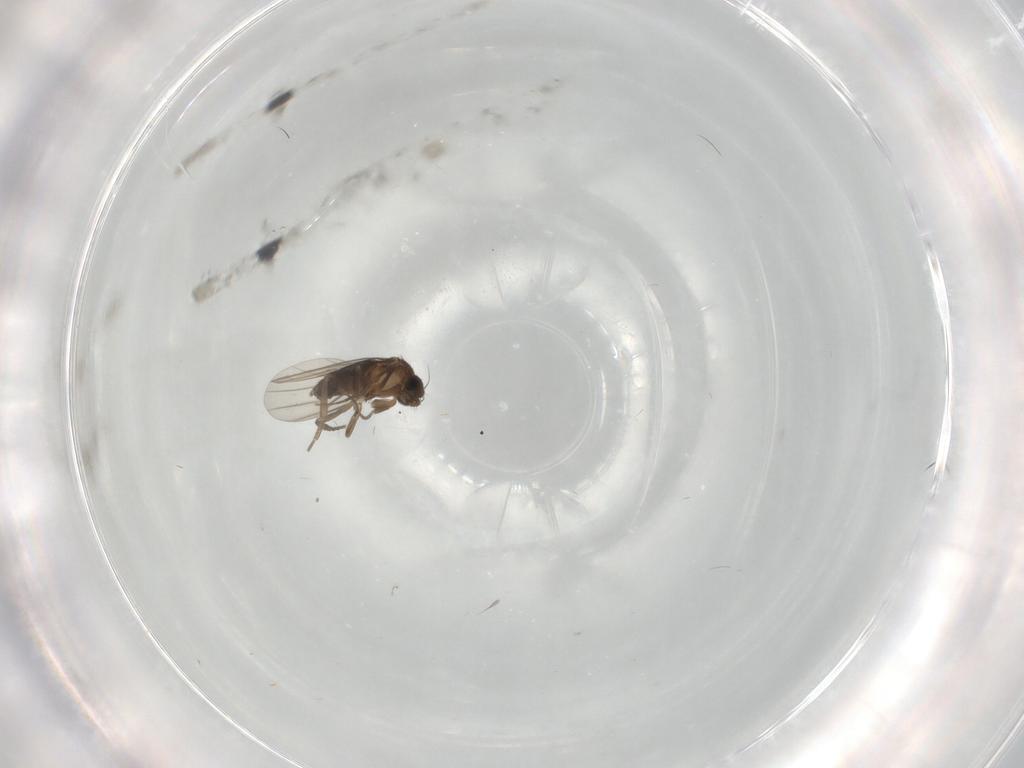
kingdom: Animalia
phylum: Arthropoda
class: Insecta
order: Diptera
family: Phoridae
